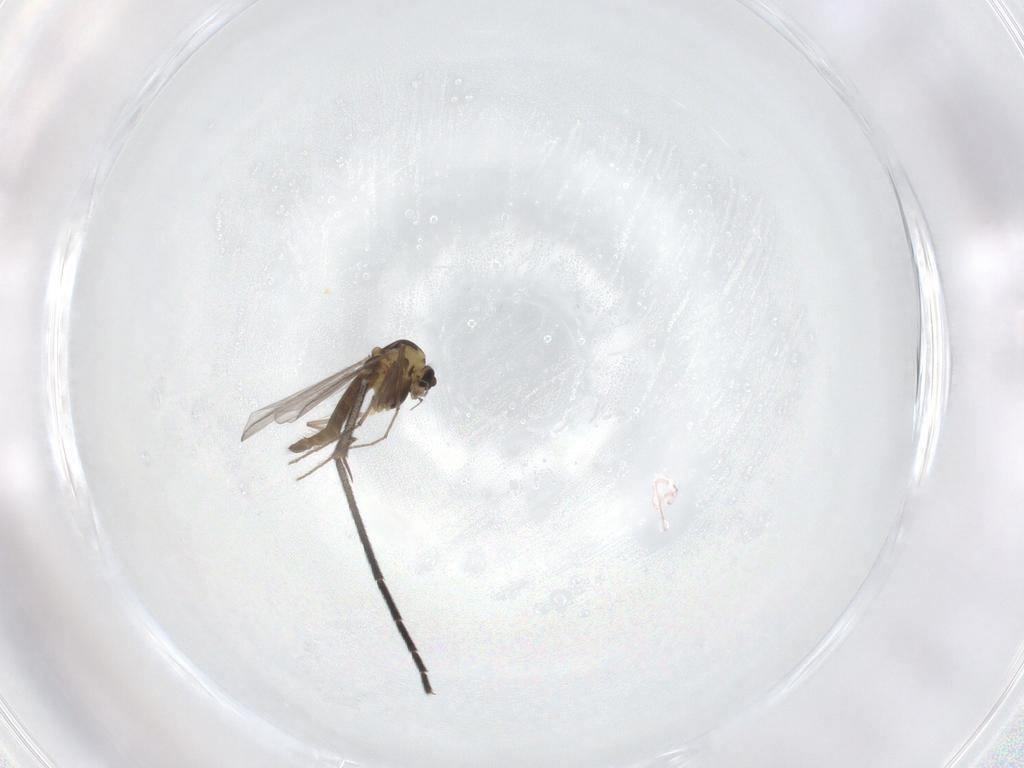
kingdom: Animalia
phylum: Arthropoda
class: Insecta
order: Diptera
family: Chironomidae
